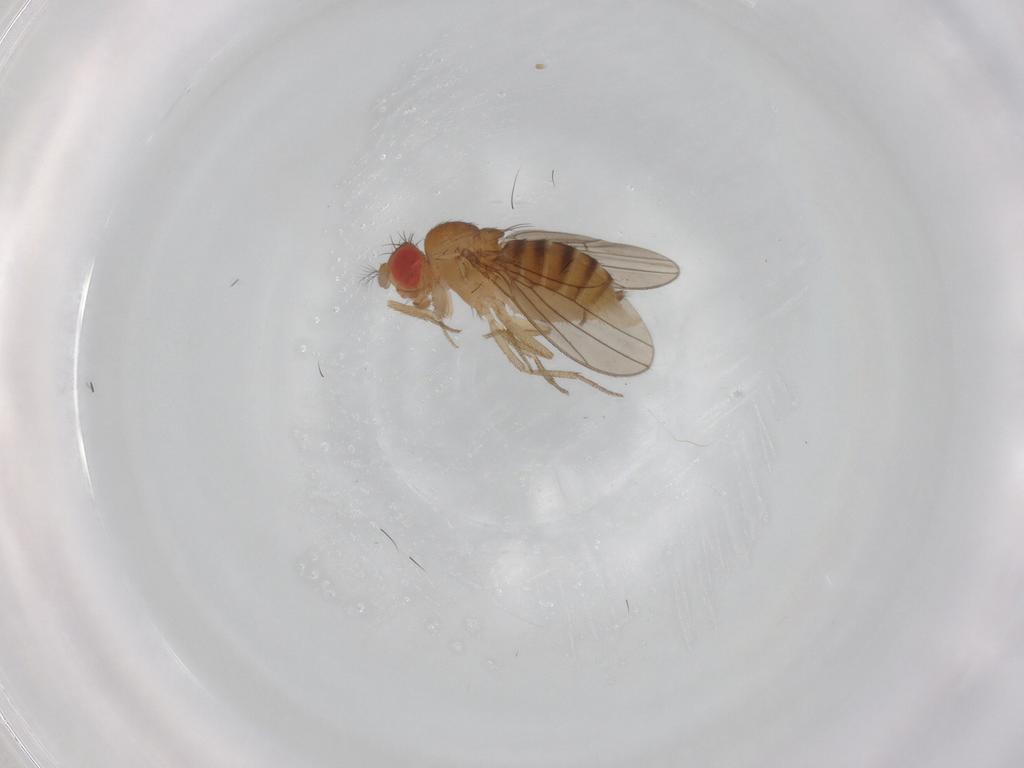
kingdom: Animalia
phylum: Arthropoda
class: Insecta
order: Diptera
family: Drosophilidae
